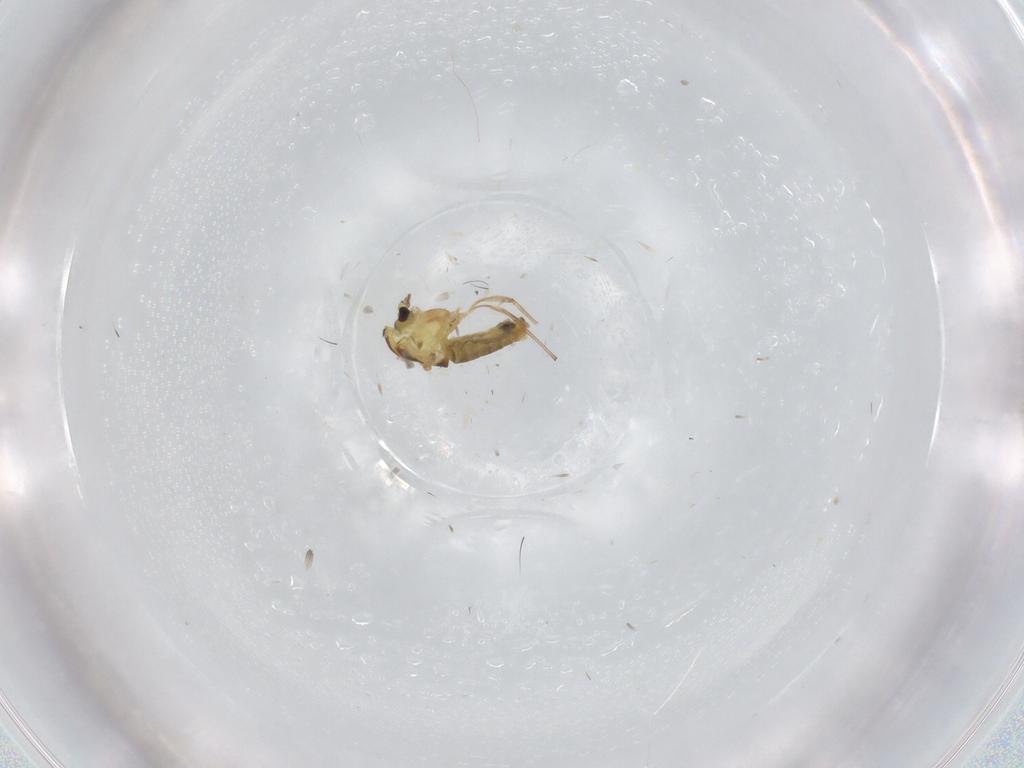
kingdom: Animalia
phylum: Arthropoda
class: Insecta
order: Diptera
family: Chironomidae
